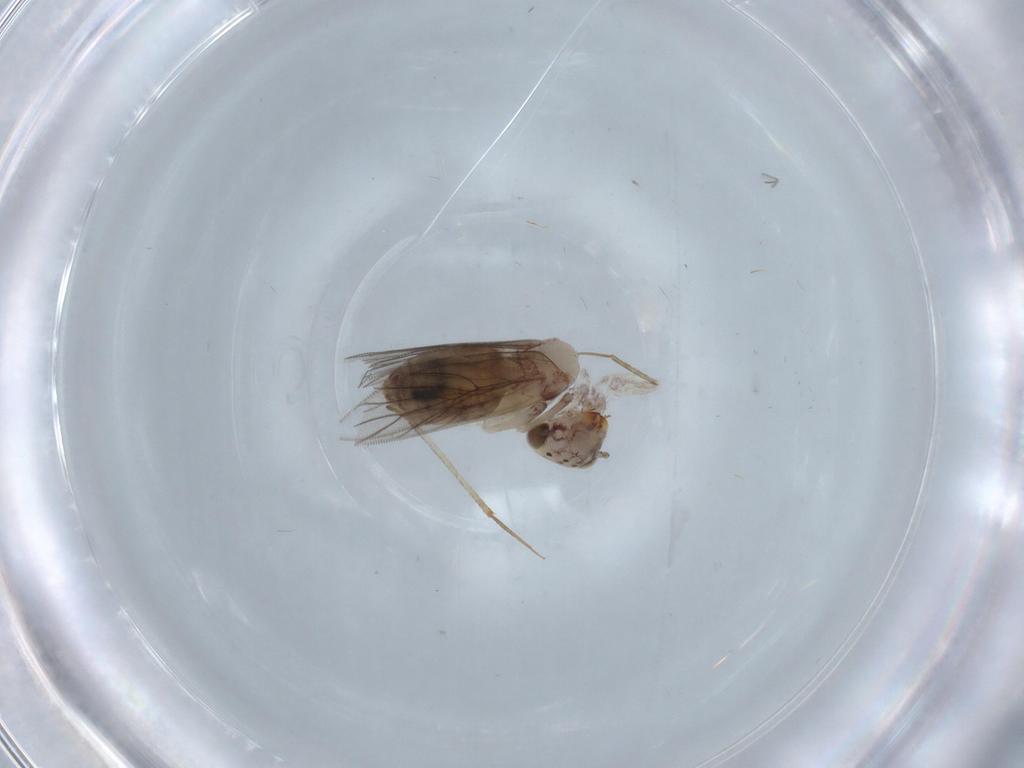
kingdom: Animalia
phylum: Arthropoda
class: Insecta
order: Psocodea
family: Lepidopsocidae
